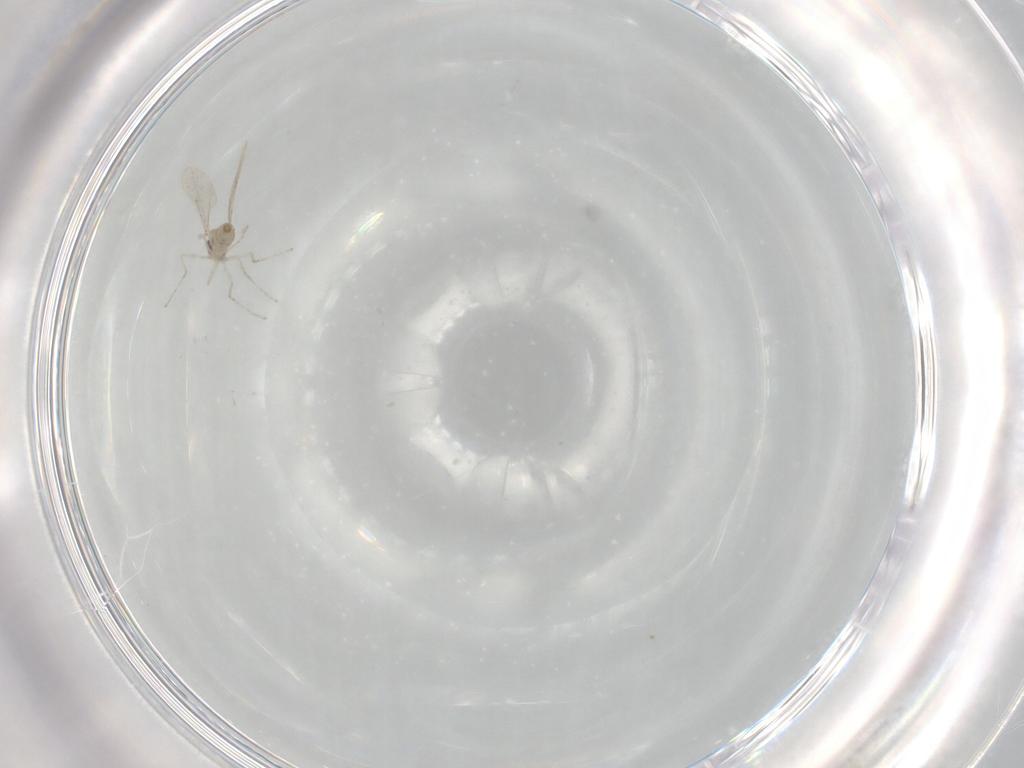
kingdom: Animalia
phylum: Arthropoda
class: Insecta
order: Diptera
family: Cecidomyiidae
